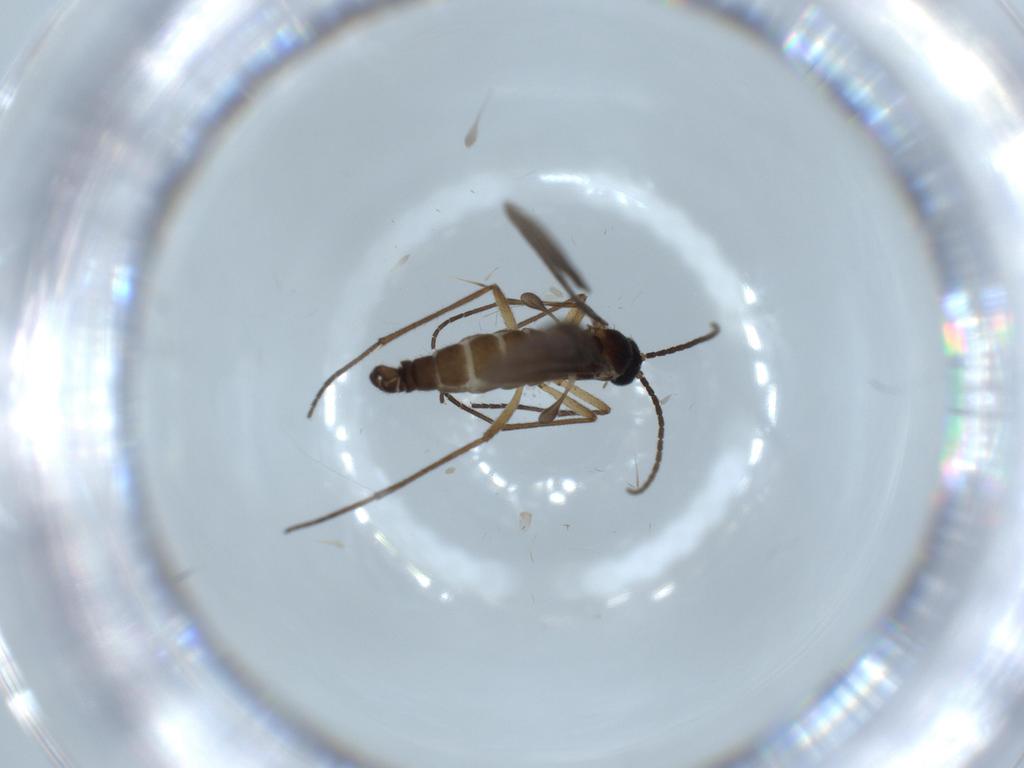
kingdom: Animalia
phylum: Arthropoda
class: Insecta
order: Diptera
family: Sciaridae
